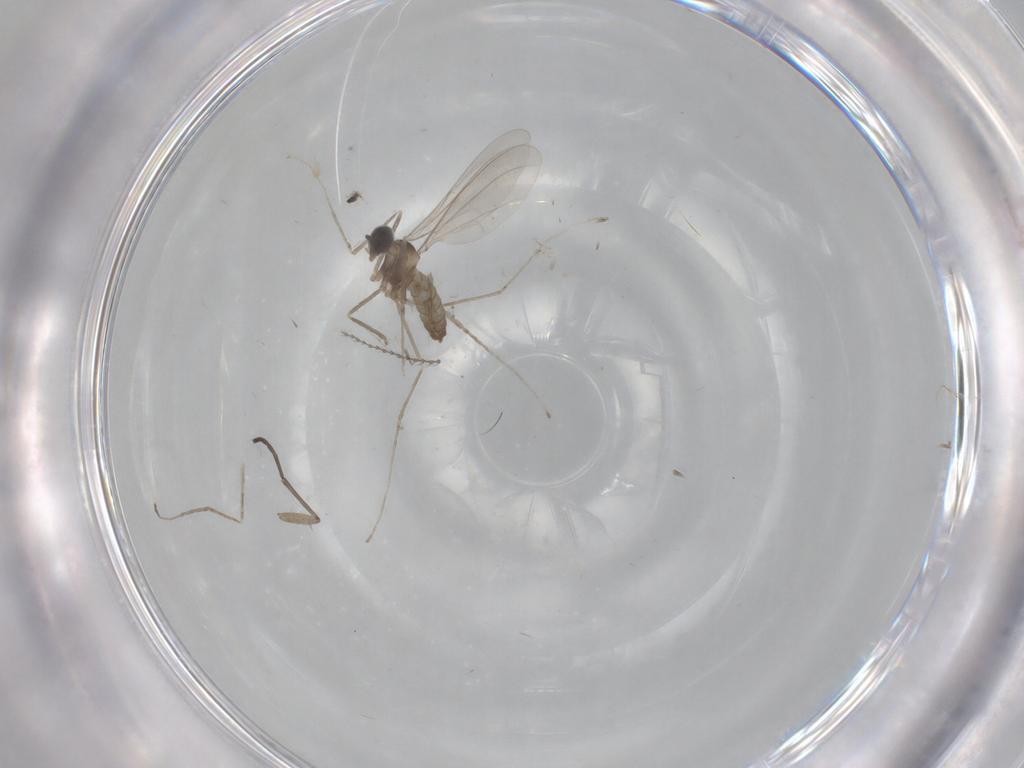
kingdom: Animalia
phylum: Arthropoda
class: Insecta
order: Diptera
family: Cecidomyiidae
